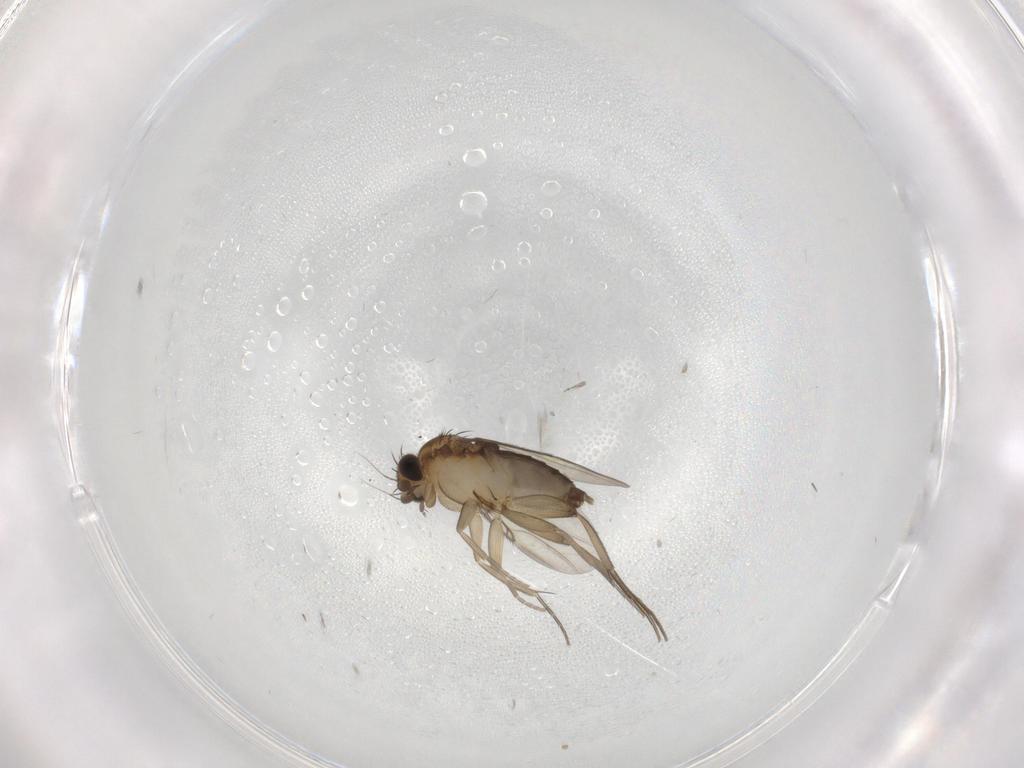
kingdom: Animalia
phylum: Arthropoda
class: Insecta
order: Diptera
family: Phoridae
